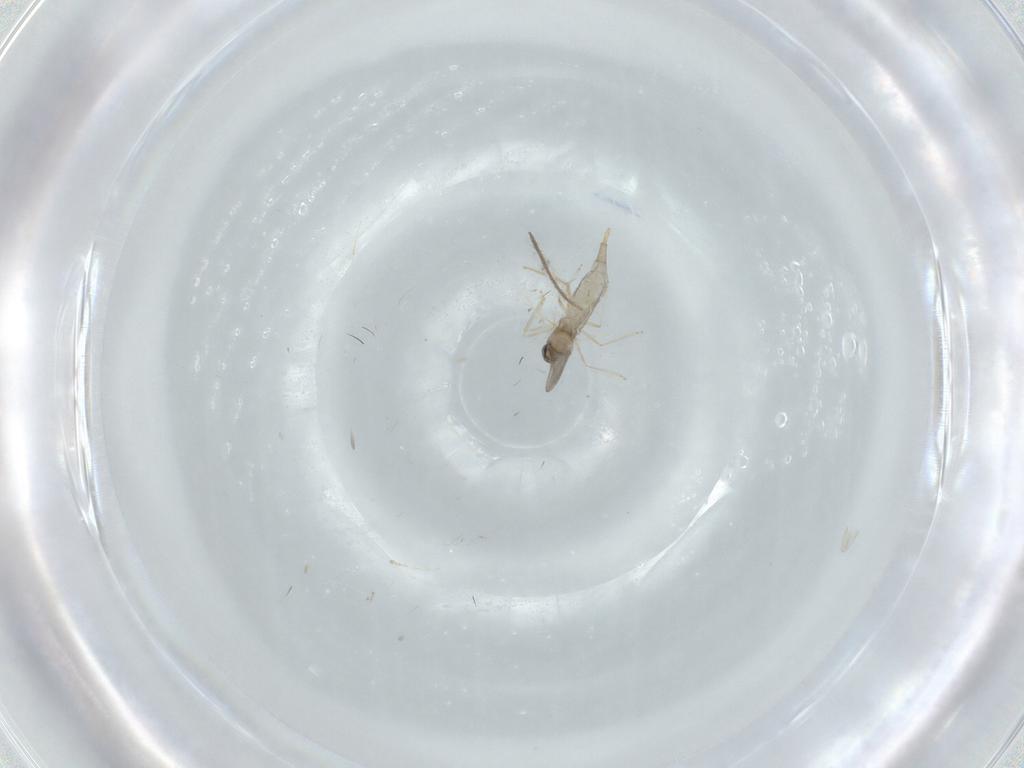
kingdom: Animalia
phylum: Arthropoda
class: Insecta
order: Diptera
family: Chironomidae
